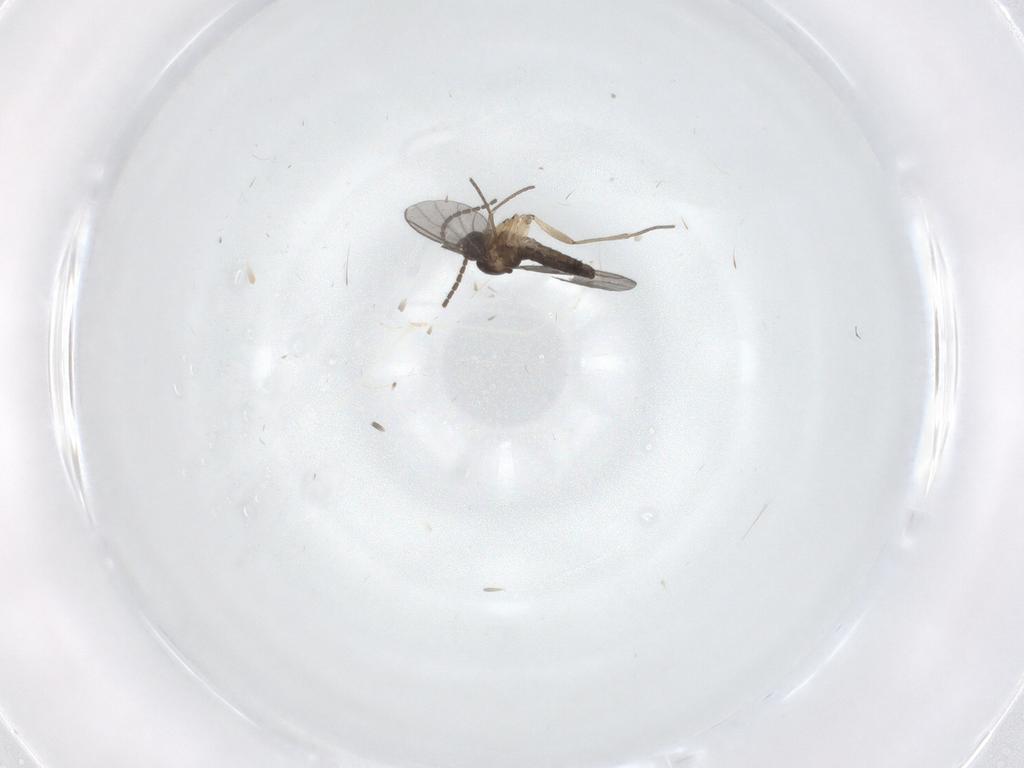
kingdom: Animalia
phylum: Arthropoda
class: Insecta
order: Diptera
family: Sciaridae
